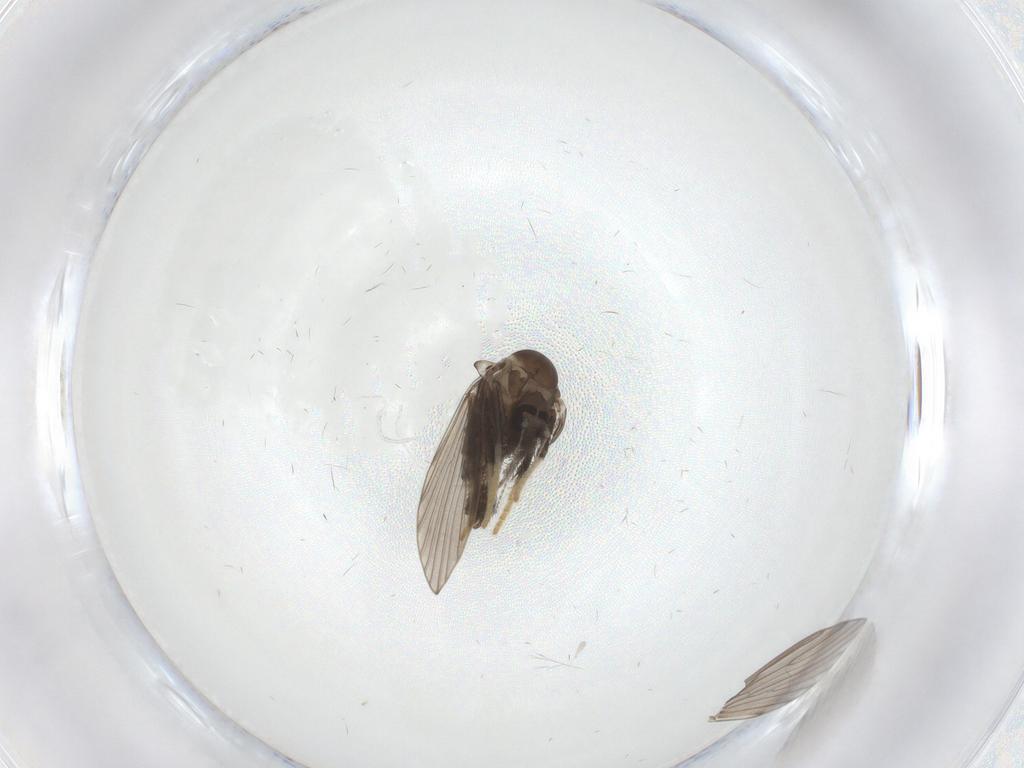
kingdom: Animalia
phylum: Arthropoda
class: Insecta
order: Diptera
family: Psychodidae
